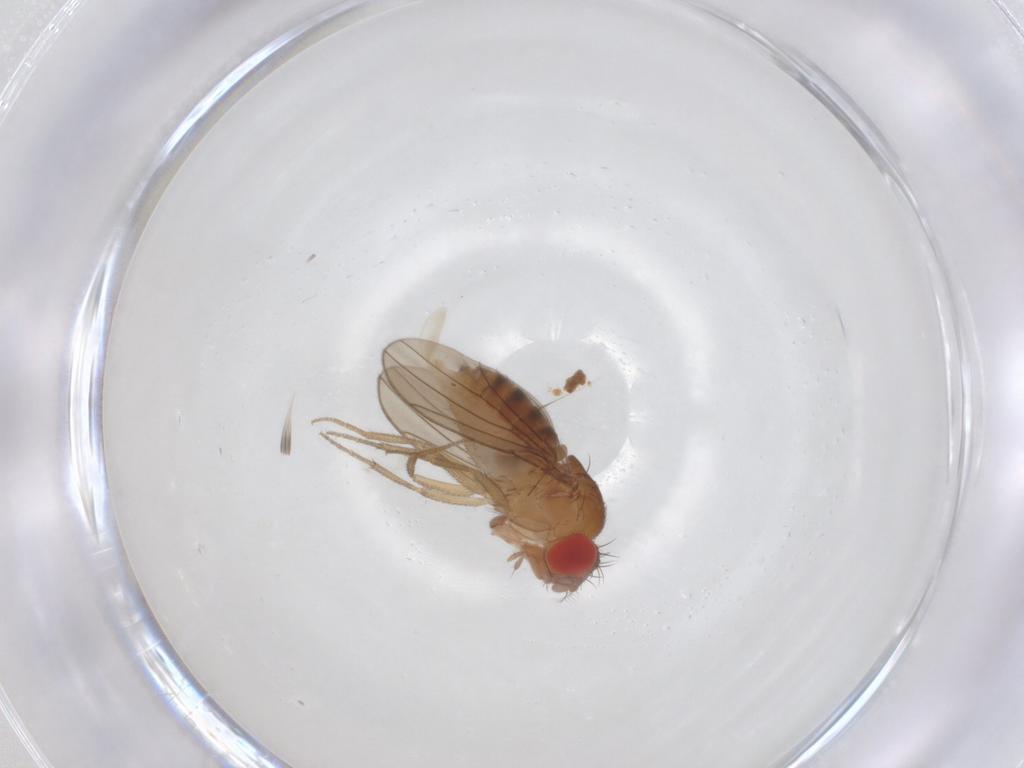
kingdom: Animalia
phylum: Arthropoda
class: Insecta
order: Diptera
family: Drosophilidae
